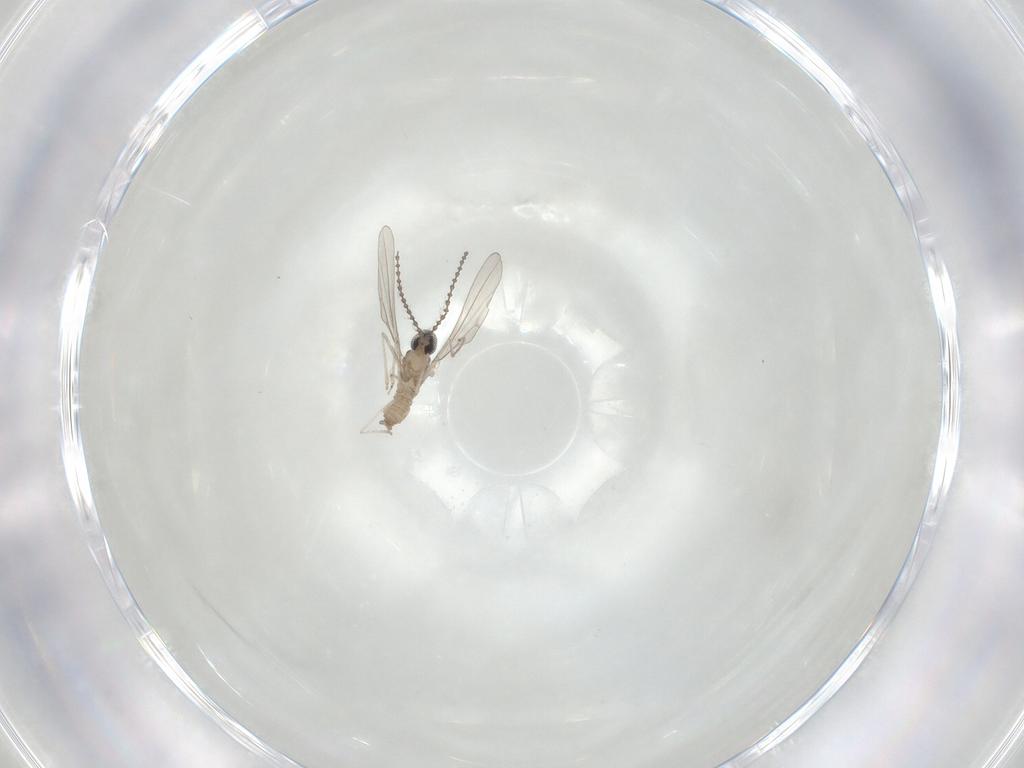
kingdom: Animalia
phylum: Arthropoda
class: Insecta
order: Diptera
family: Cecidomyiidae
